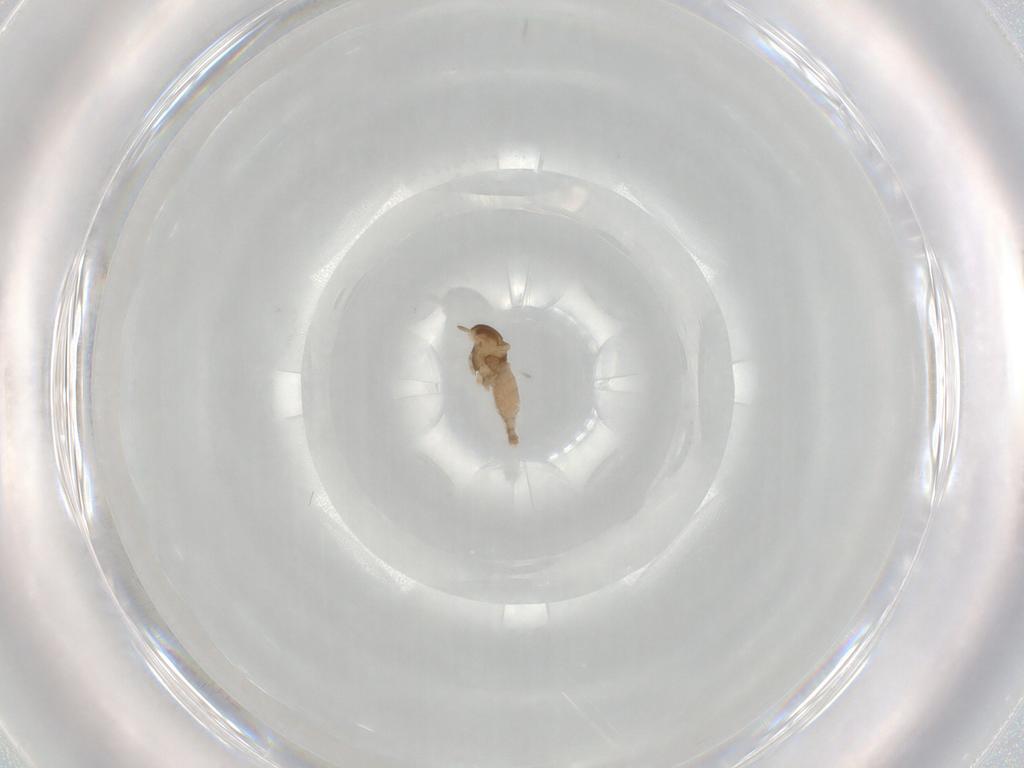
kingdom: Animalia
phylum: Arthropoda
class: Insecta
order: Diptera
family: Cecidomyiidae
